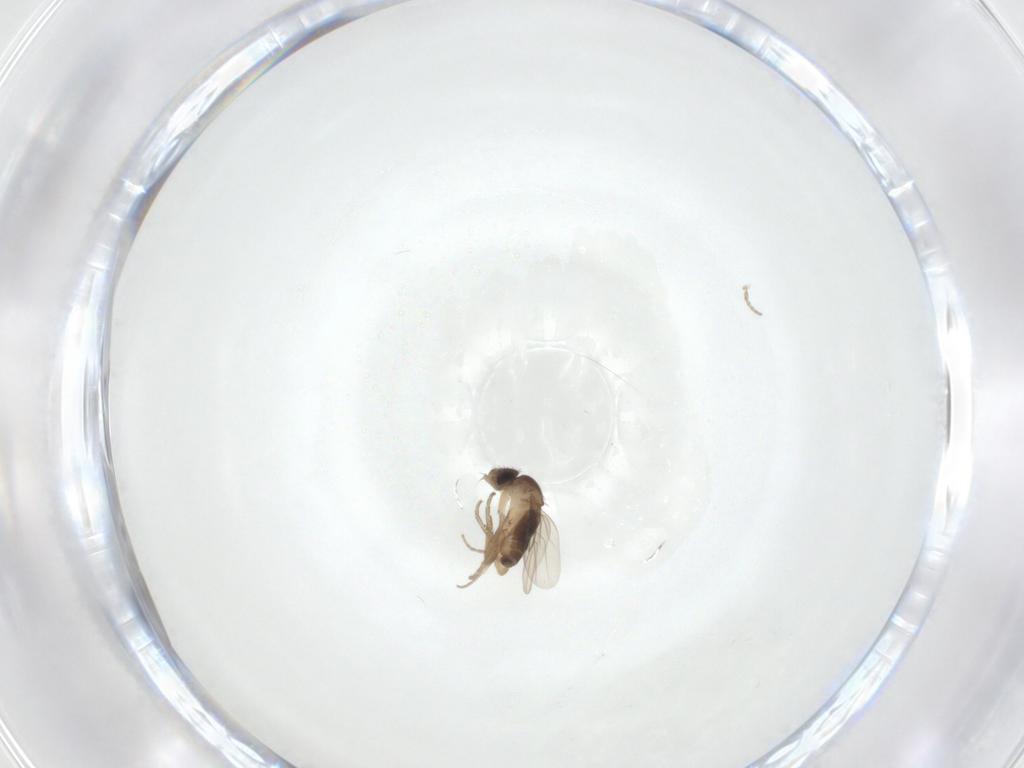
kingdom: Animalia
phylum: Arthropoda
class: Insecta
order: Diptera
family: Phoridae
